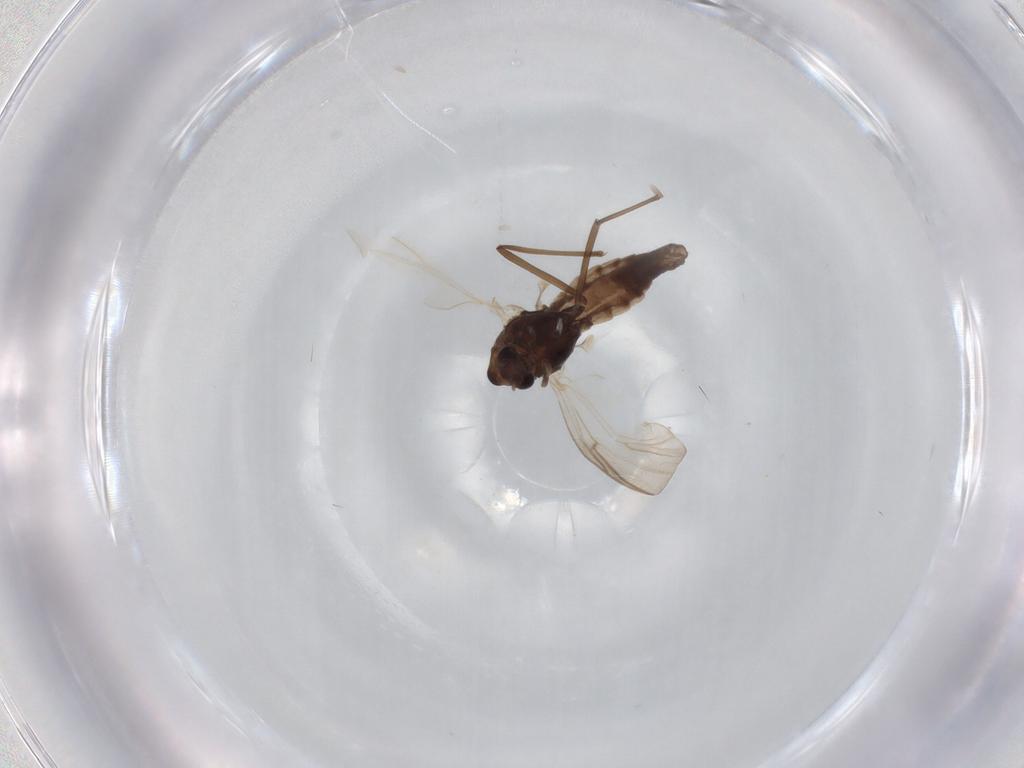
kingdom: Animalia
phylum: Arthropoda
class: Insecta
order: Diptera
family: Chironomidae
